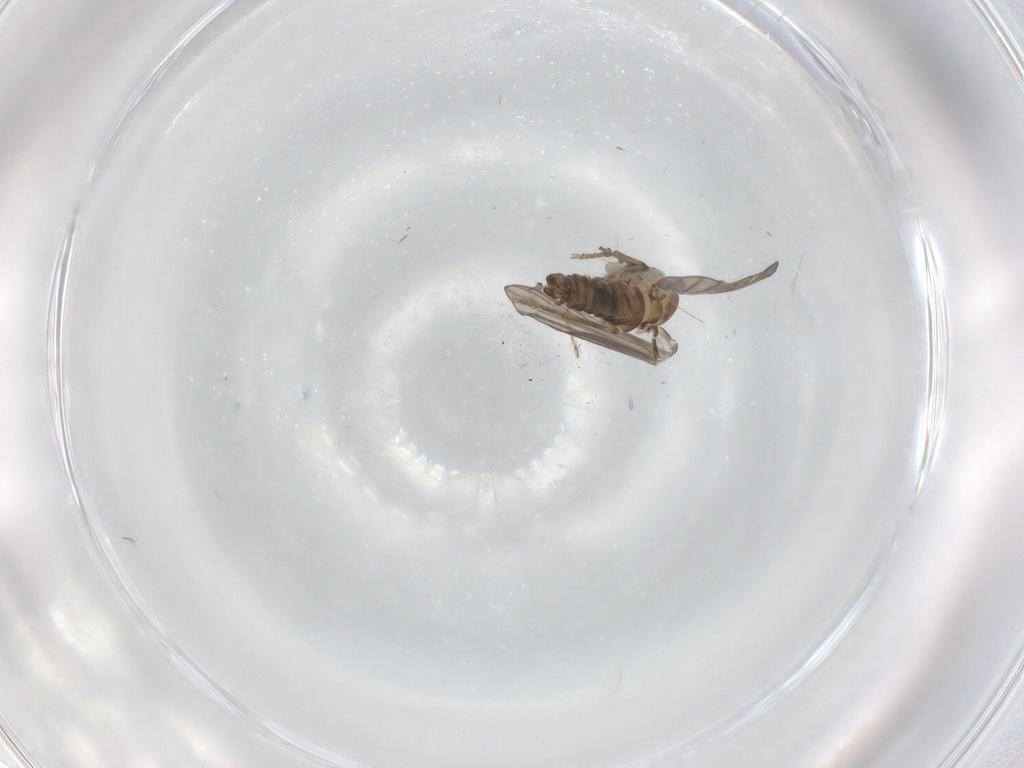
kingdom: Animalia
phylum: Arthropoda
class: Insecta
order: Diptera
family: Psychodidae
